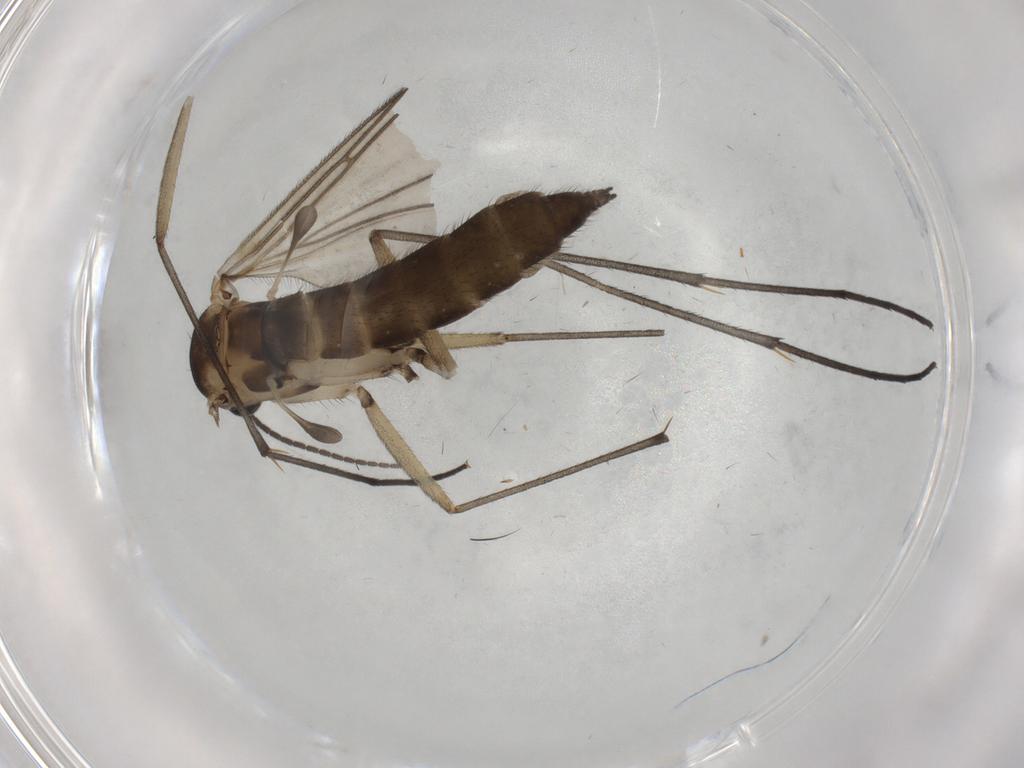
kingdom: Animalia
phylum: Arthropoda
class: Insecta
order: Diptera
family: Sciaridae
